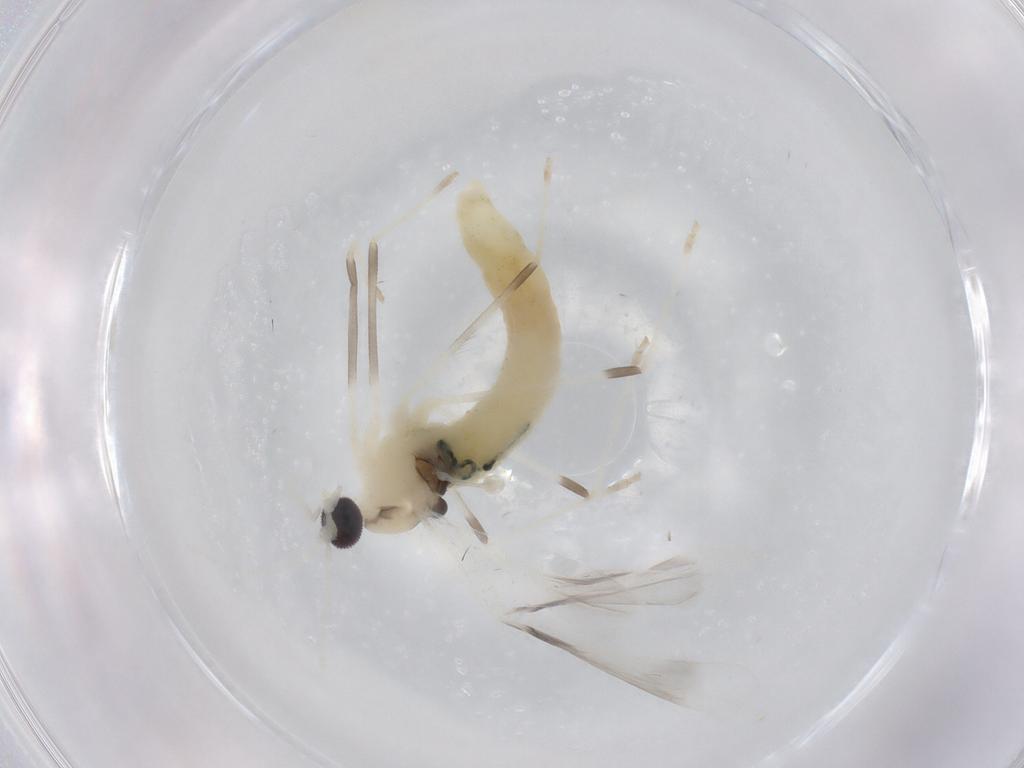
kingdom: Animalia
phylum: Arthropoda
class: Insecta
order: Diptera
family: Cecidomyiidae
